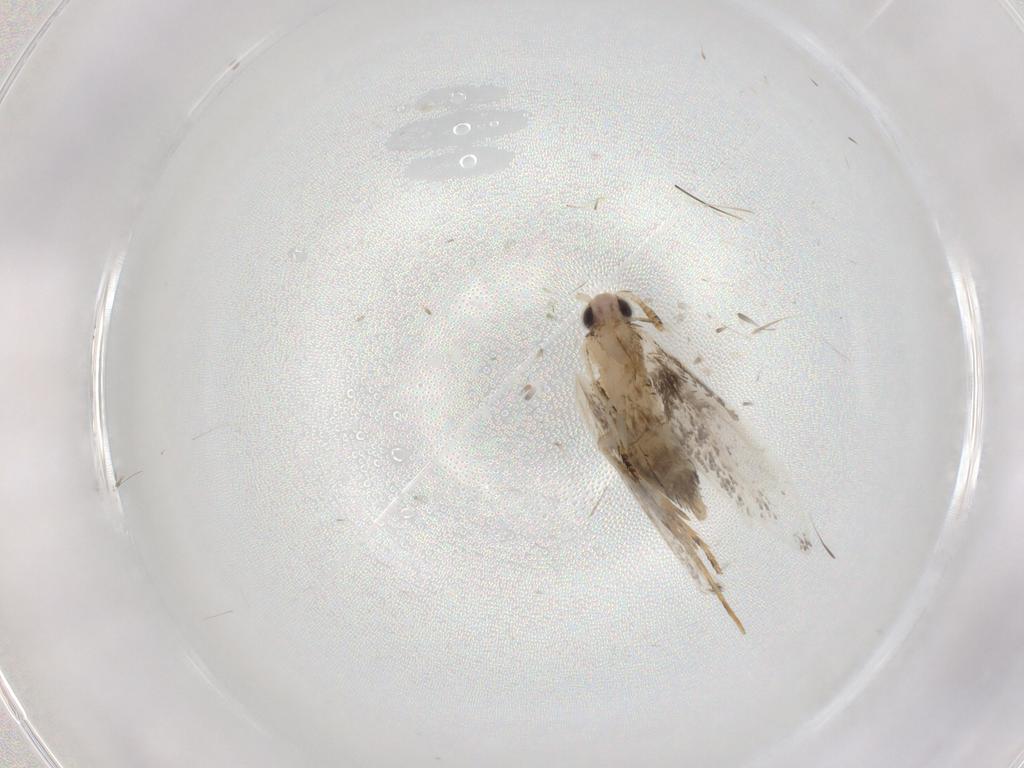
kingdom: Animalia
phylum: Arthropoda
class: Insecta
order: Lepidoptera
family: Tineidae
